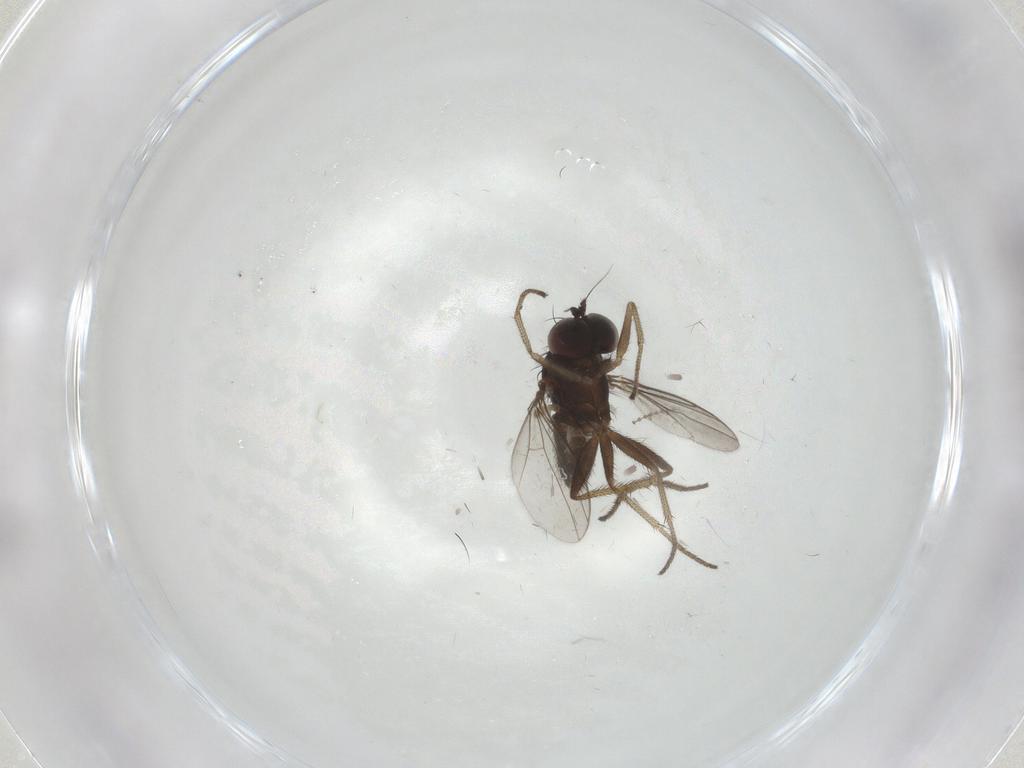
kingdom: Animalia
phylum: Arthropoda
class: Insecta
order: Diptera
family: Dolichopodidae
